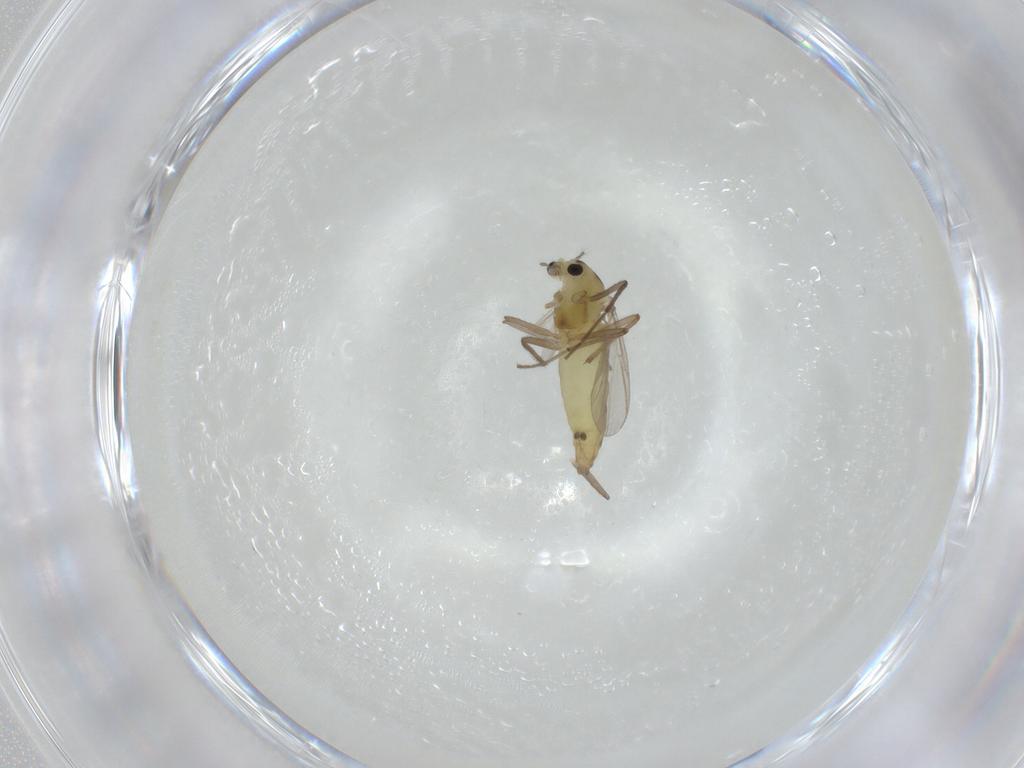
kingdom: Animalia
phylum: Arthropoda
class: Insecta
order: Diptera
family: Chironomidae
